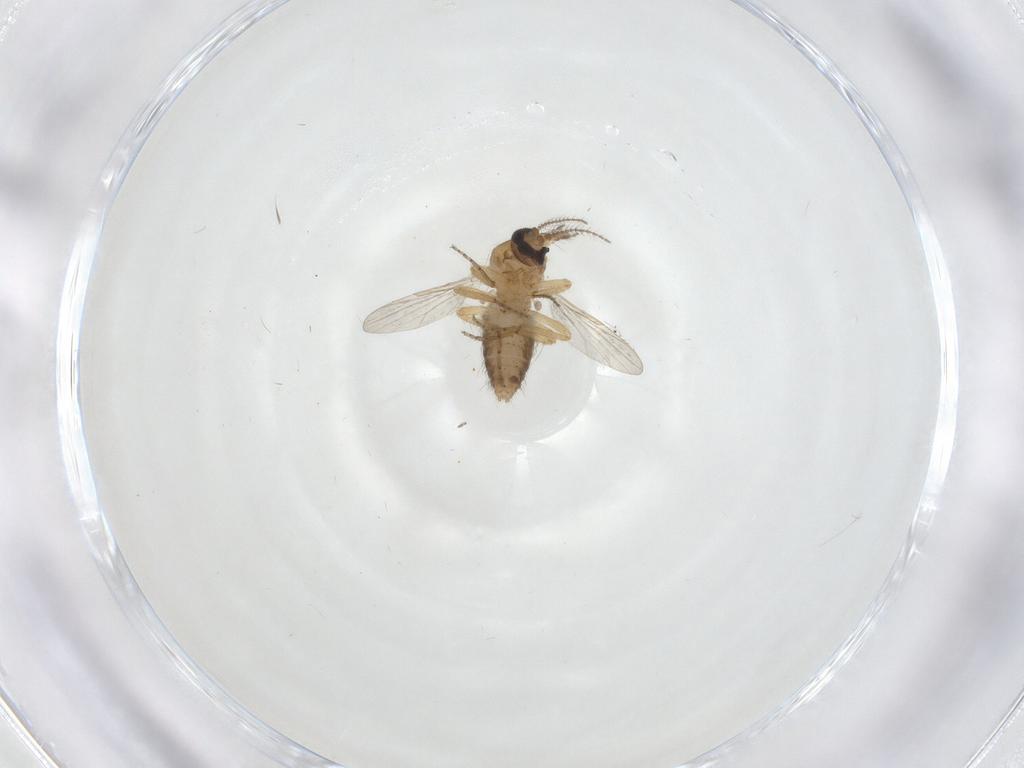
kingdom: Animalia
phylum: Arthropoda
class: Insecta
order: Diptera
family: Ceratopogonidae
